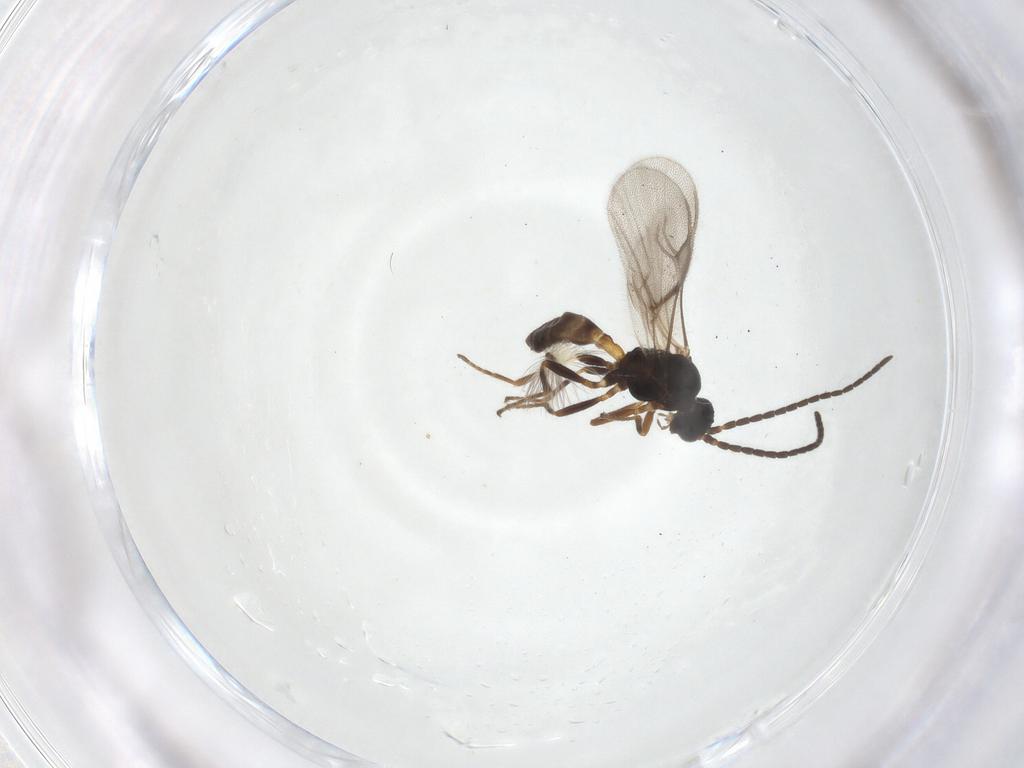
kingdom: Animalia
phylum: Arthropoda
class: Insecta
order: Hymenoptera
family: Braconidae
